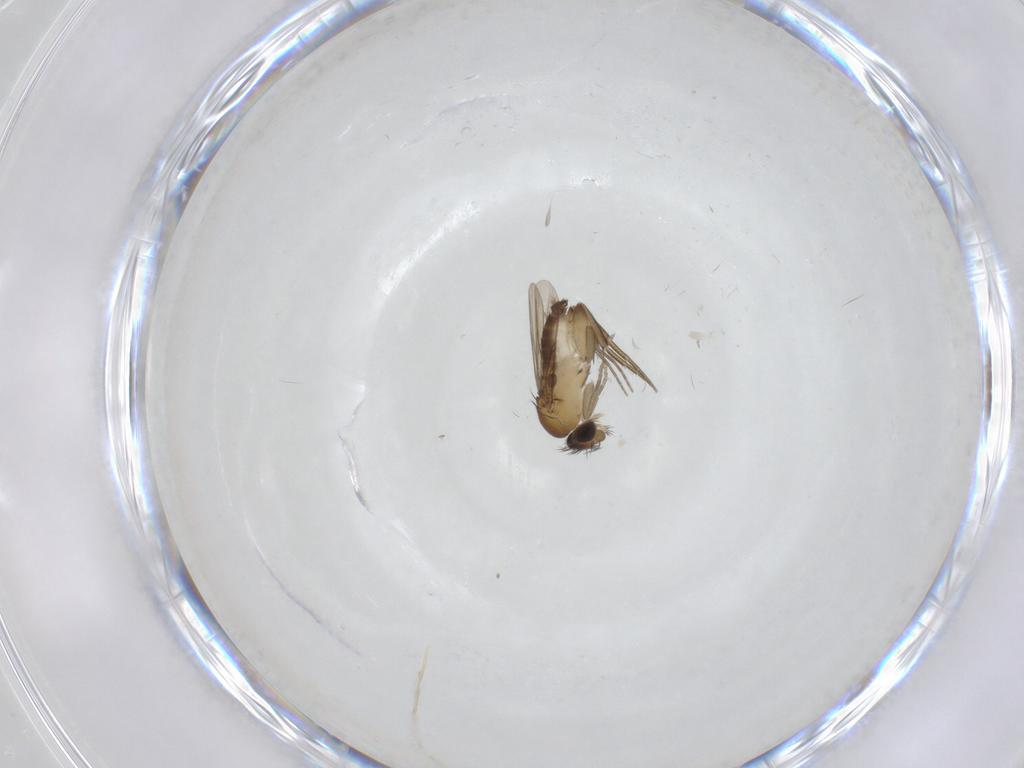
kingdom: Animalia
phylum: Arthropoda
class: Insecta
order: Diptera
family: Phoridae
